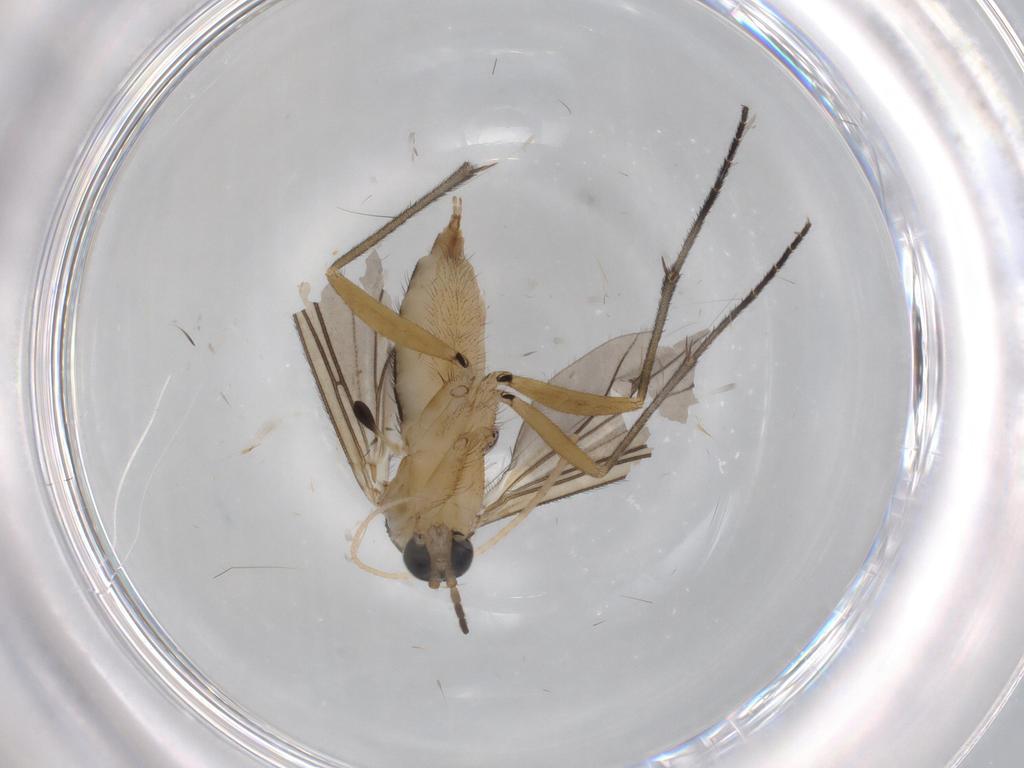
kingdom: Animalia
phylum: Arthropoda
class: Insecta
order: Diptera
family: Sciaridae
